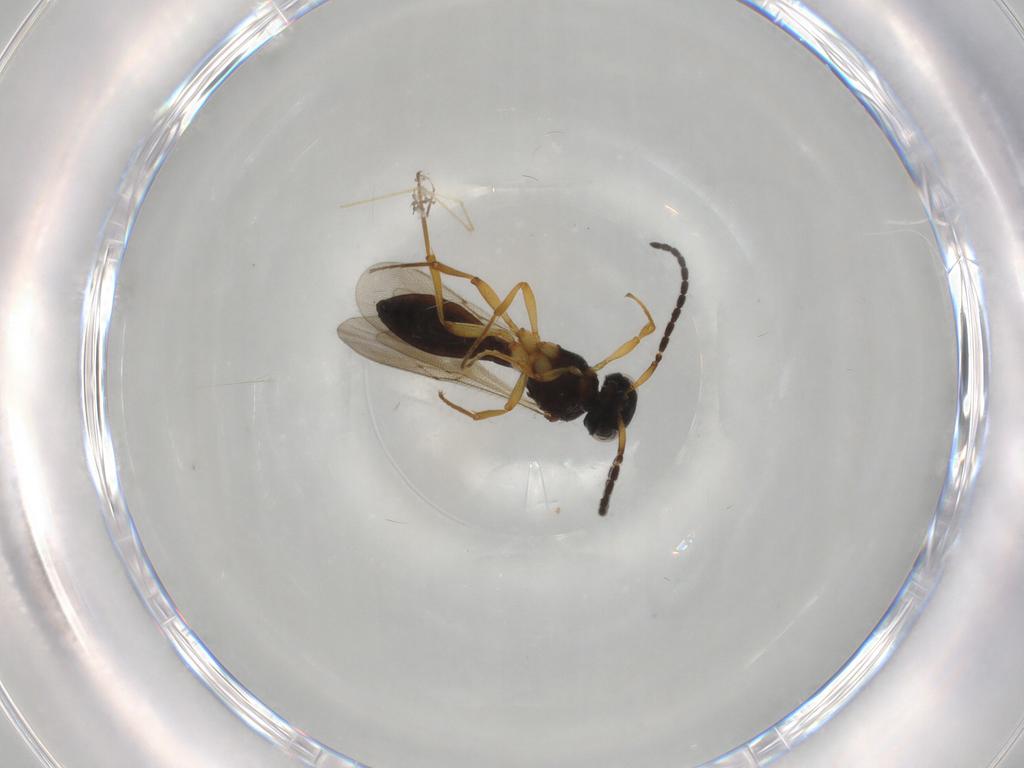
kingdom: Animalia
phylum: Arthropoda
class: Insecta
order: Hymenoptera
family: Scelionidae
